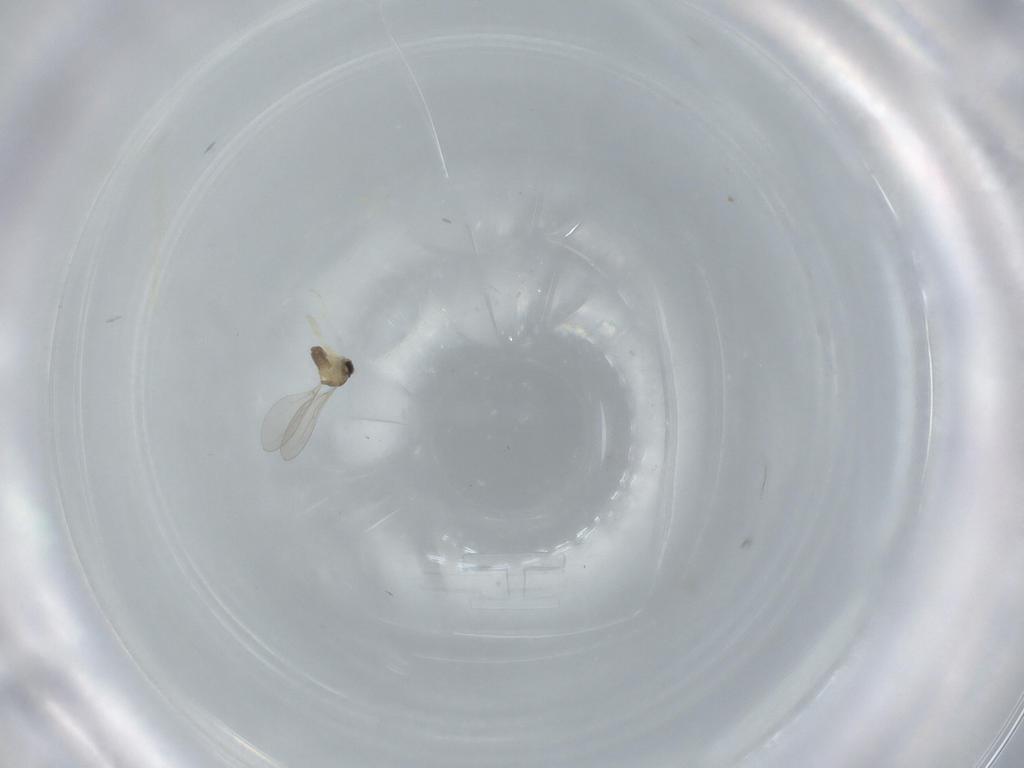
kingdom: Animalia
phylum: Arthropoda
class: Insecta
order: Diptera
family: Cecidomyiidae
